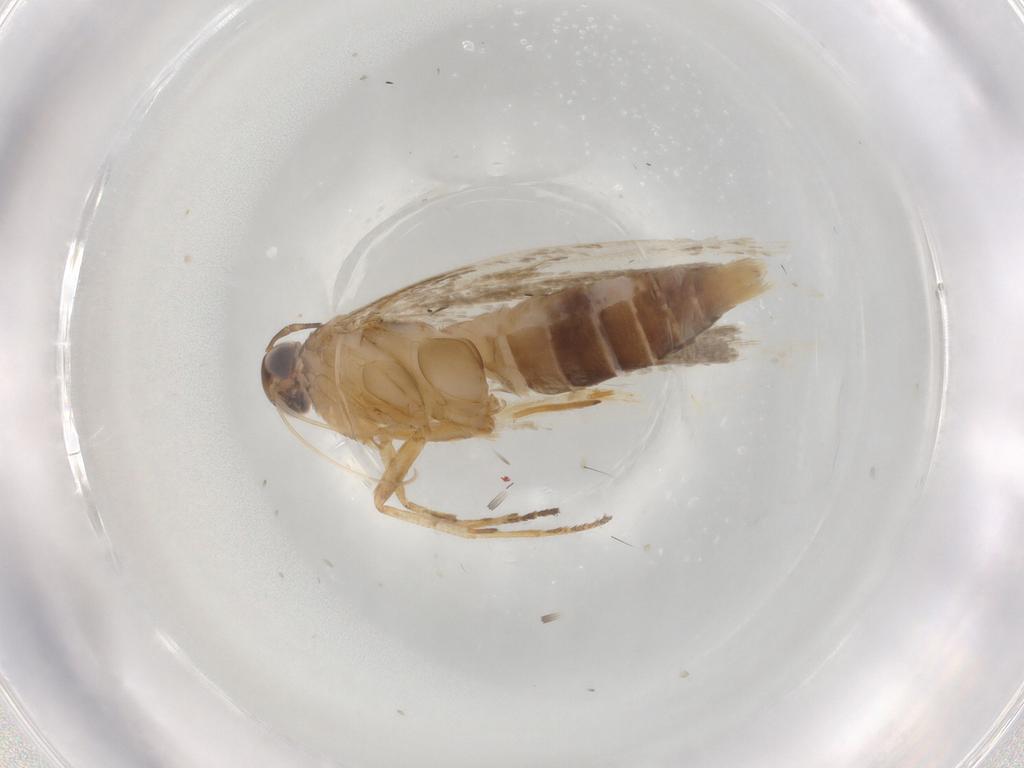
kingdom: Animalia
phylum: Arthropoda
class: Insecta
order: Lepidoptera
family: Gelechiidae
